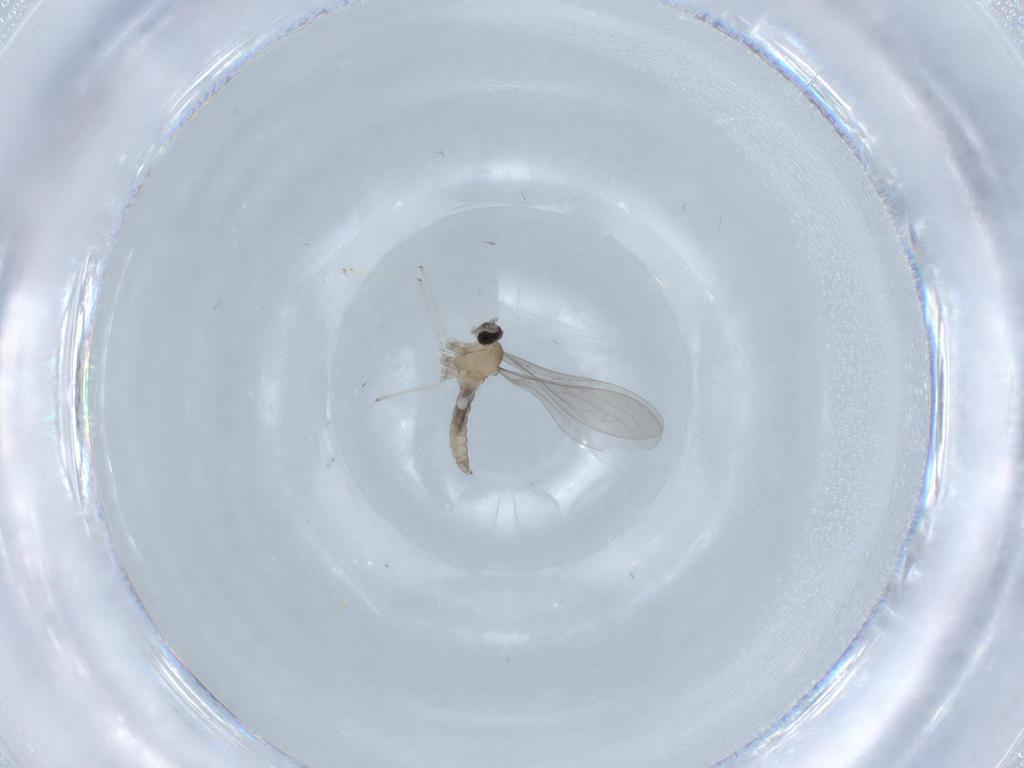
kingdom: Animalia
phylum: Arthropoda
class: Insecta
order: Diptera
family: Cecidomyiidae
